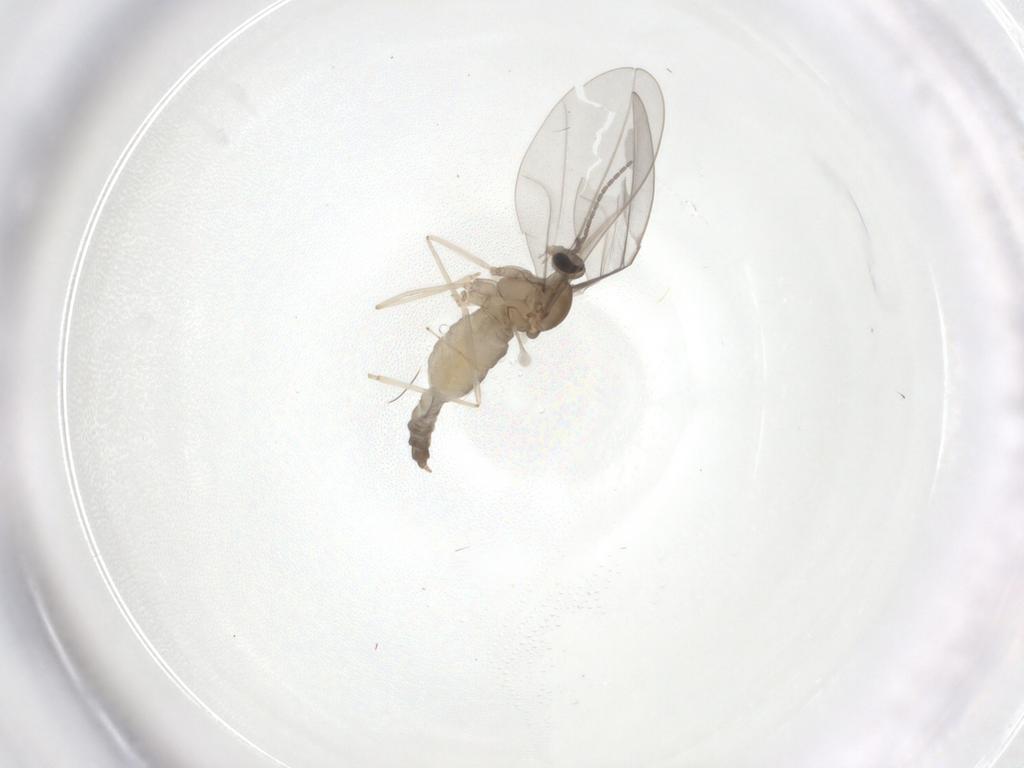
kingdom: Animalia
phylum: Arthropoda
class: Insecta
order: Diptera
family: Cecidomyiidae
